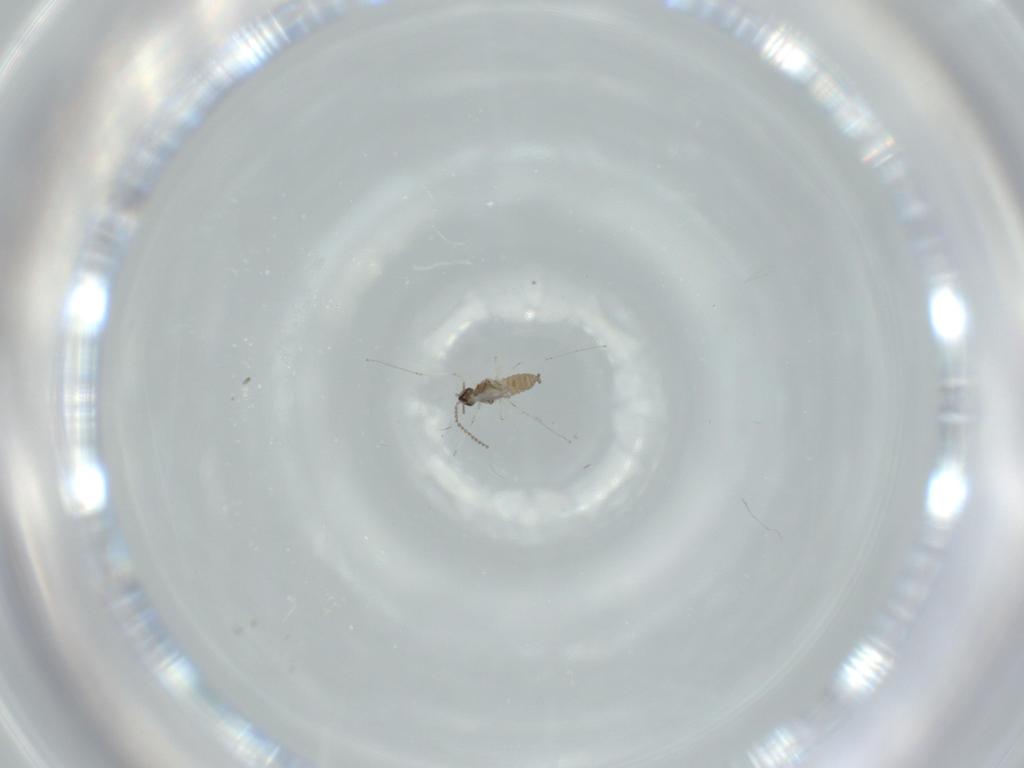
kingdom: Animalia
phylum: Arthropoda
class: Insecta
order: Diptera
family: Cecidomyiidae
